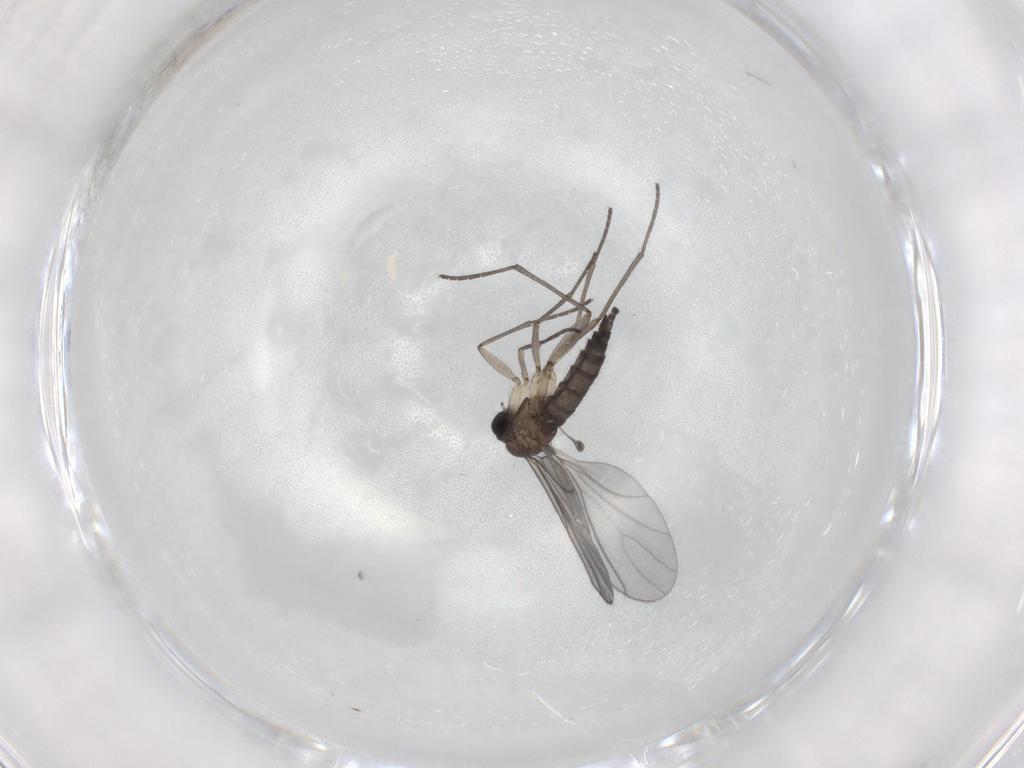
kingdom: Animalia
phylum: Arthropoda
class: Insecta
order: Diptera
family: Sciaridae
